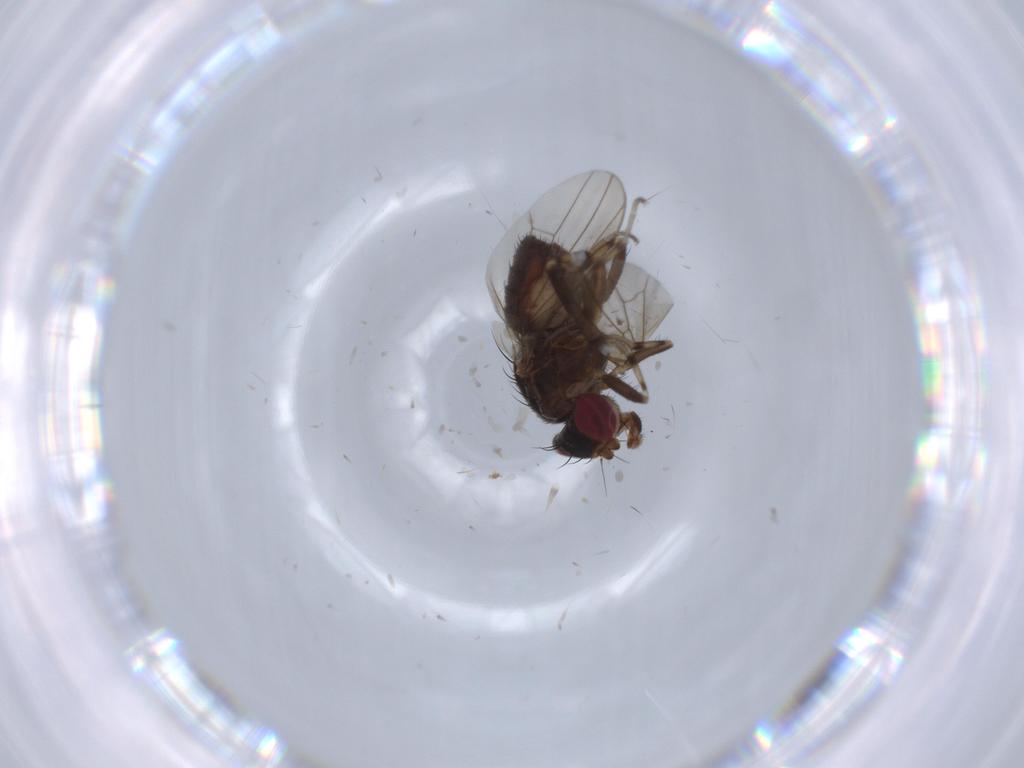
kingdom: Animalia
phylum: Arthropoda
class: Insecta
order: Diptera
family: Heleomyzidae
